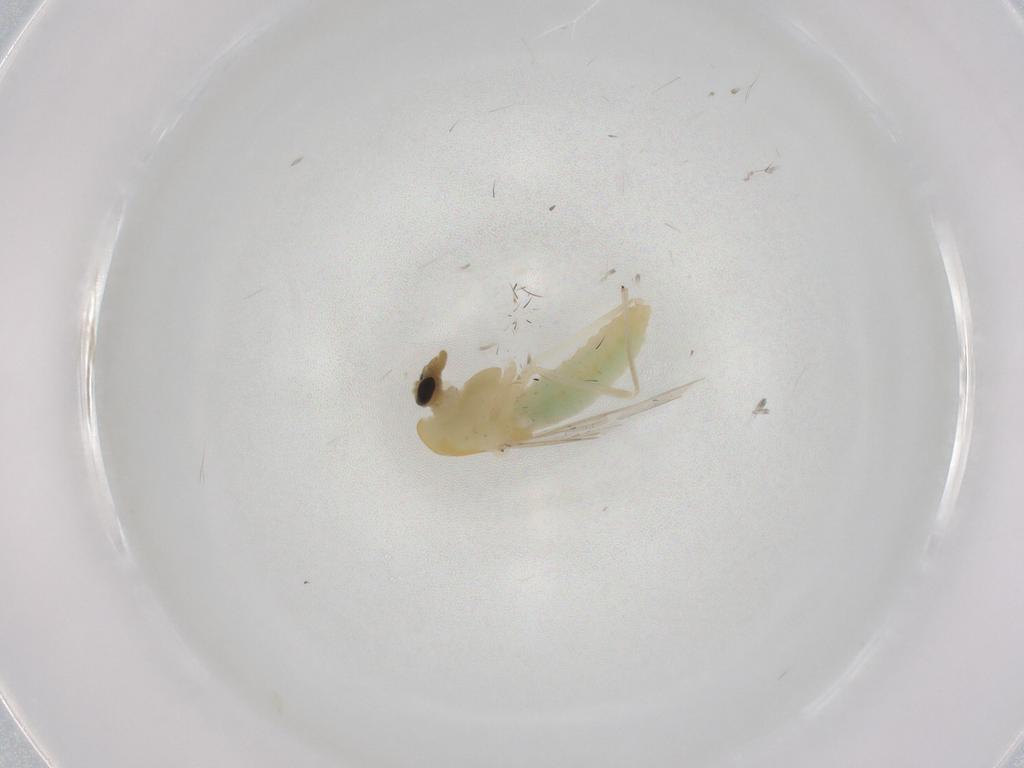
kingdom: Animalia
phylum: Arthropoda
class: Insecta
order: Diptera
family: Chironomidae
